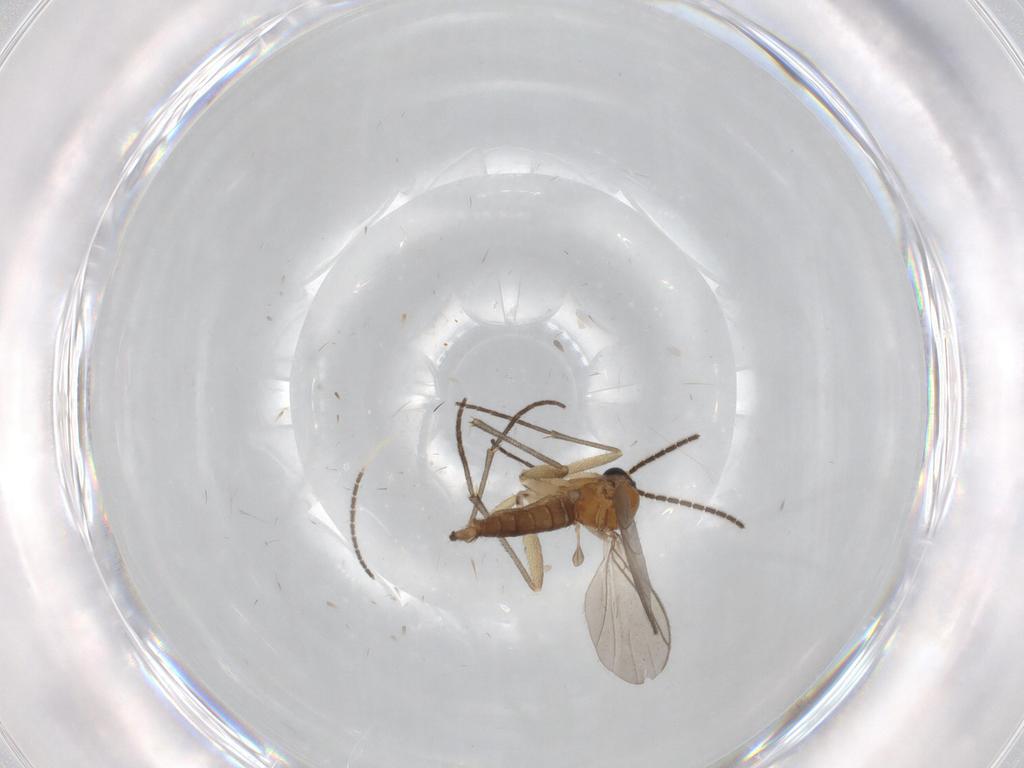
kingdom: Animalia
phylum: Arthropoda
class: Insecta
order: Diptera
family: Sciaridae
